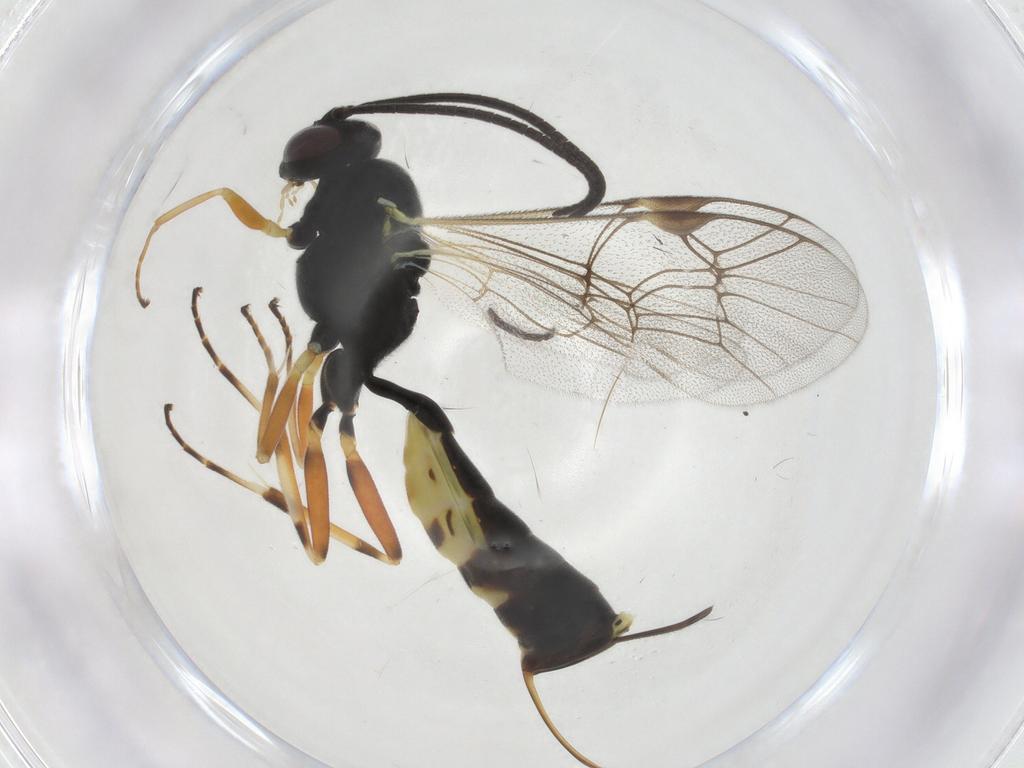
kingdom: Animalia
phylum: Arthropoda
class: Insecta
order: Hymenoptera
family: Ichneumonidae
